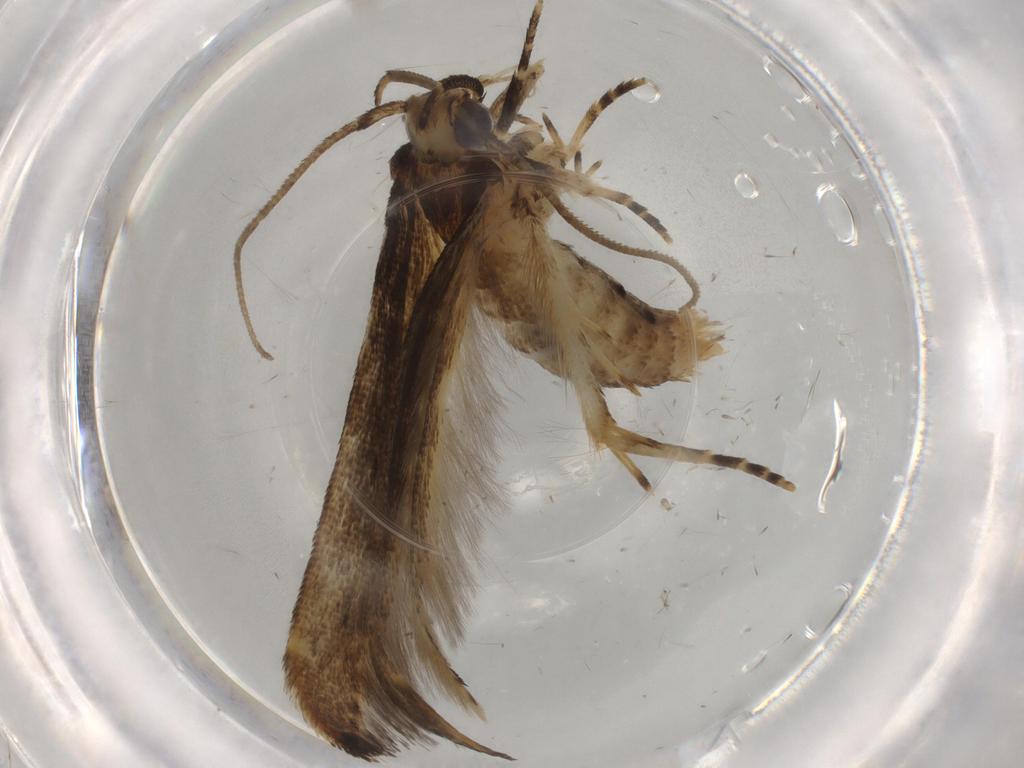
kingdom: Animalia
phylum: Arthropoda
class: Insecta
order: Lepidoptera
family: Cosmopterigidae
